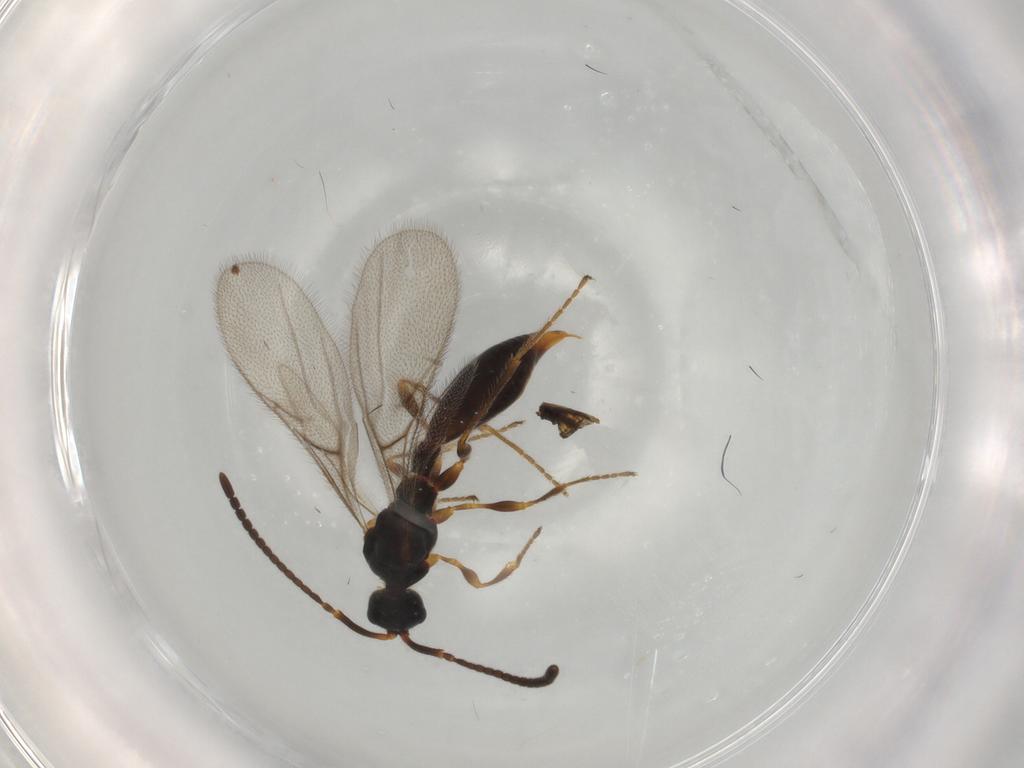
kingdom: Animalia
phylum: Arthropoda
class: Insecta
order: Hymenoptera
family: Diapriidae
